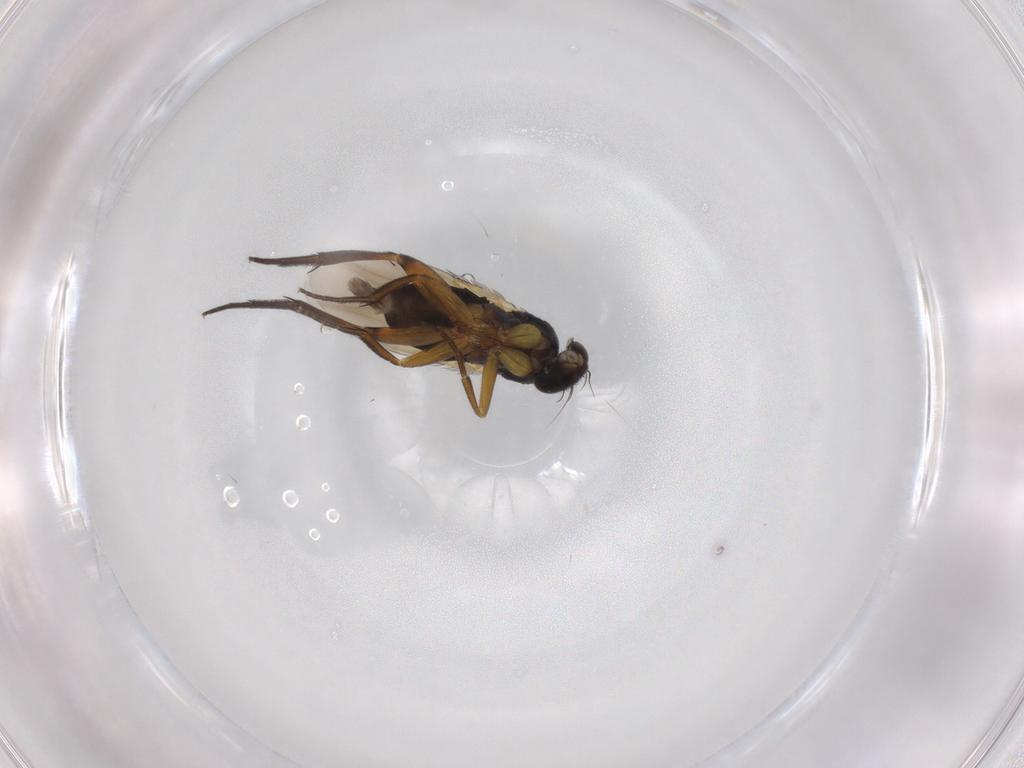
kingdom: Animalia
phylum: Arthropoda
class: Insecta
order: Diptera
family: Phoridae
